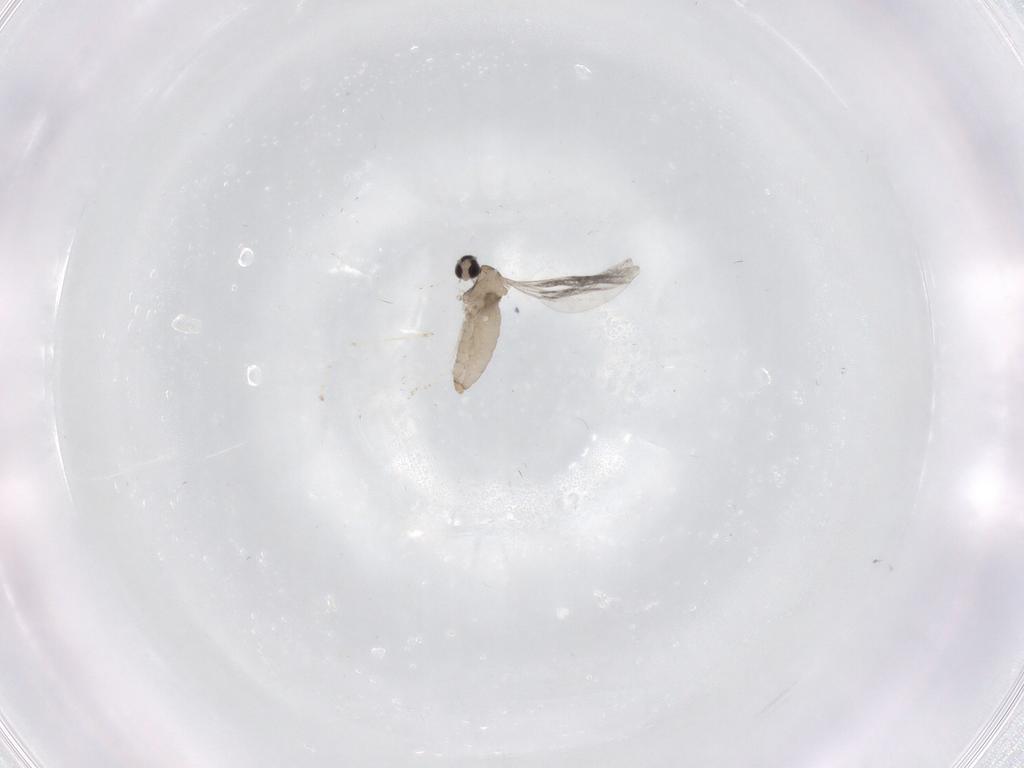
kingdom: Animalia
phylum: Arthropoda
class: Insecta
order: Diptera
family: Cecidomyiidae
